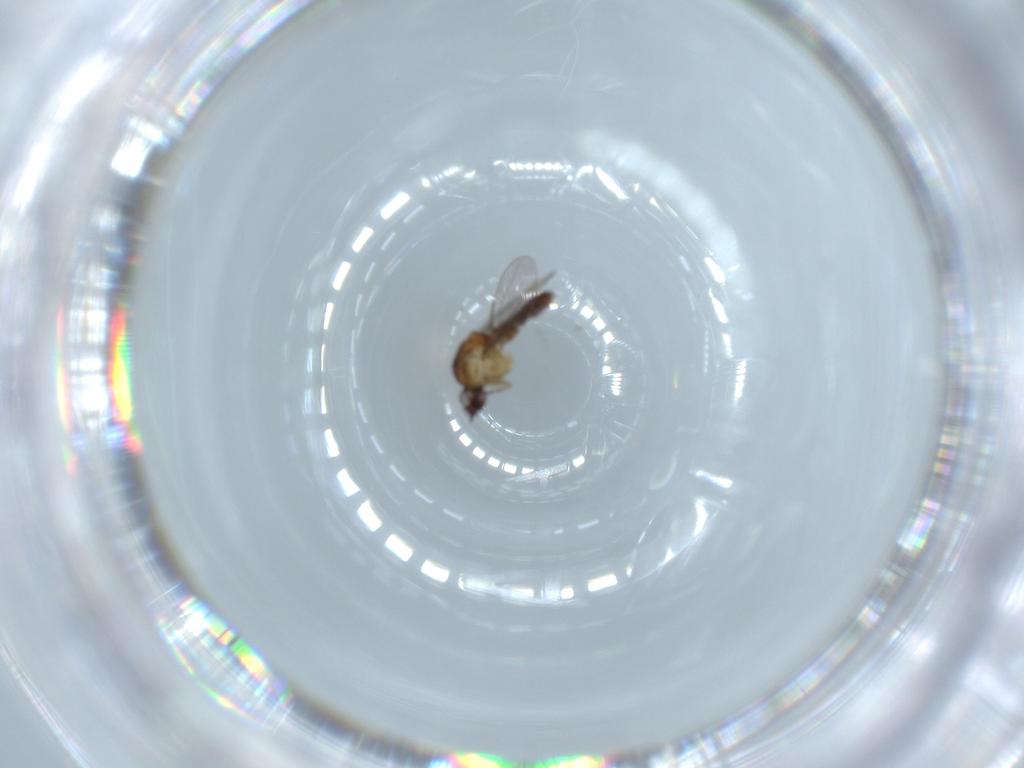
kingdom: Animalia
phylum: Arthropoda
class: Insecta
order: Diptera
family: Ceratopogonidae
